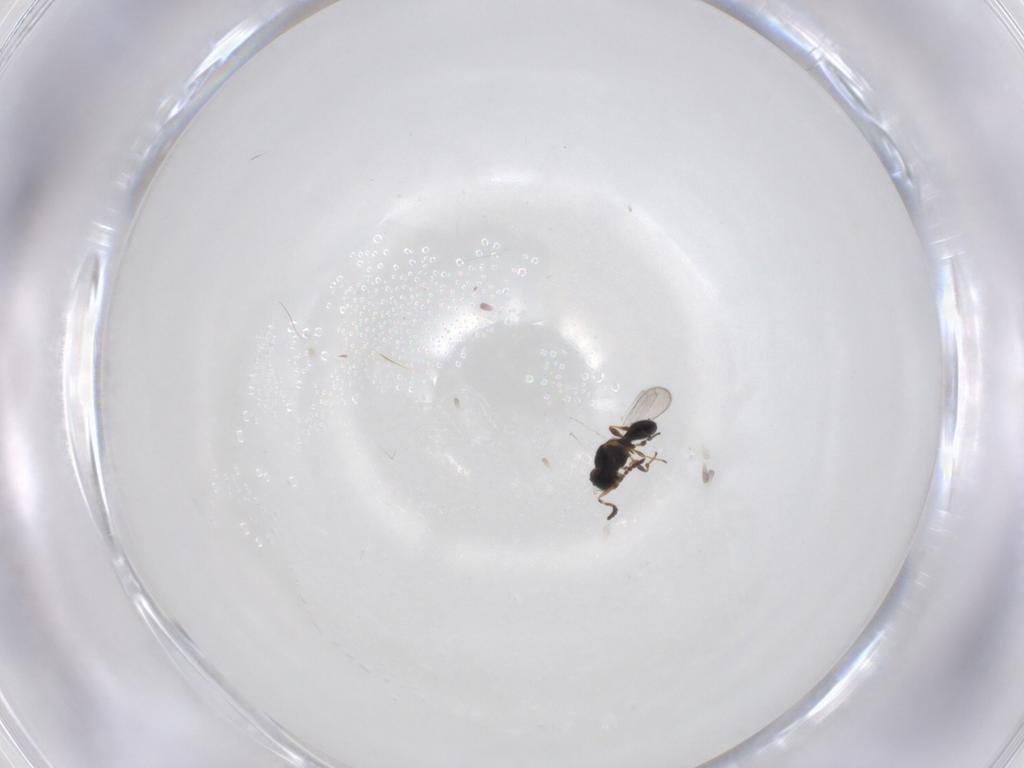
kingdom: Animalia
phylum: Arthropoda
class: Insecta
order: Hymenoptera
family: Platygastridae
